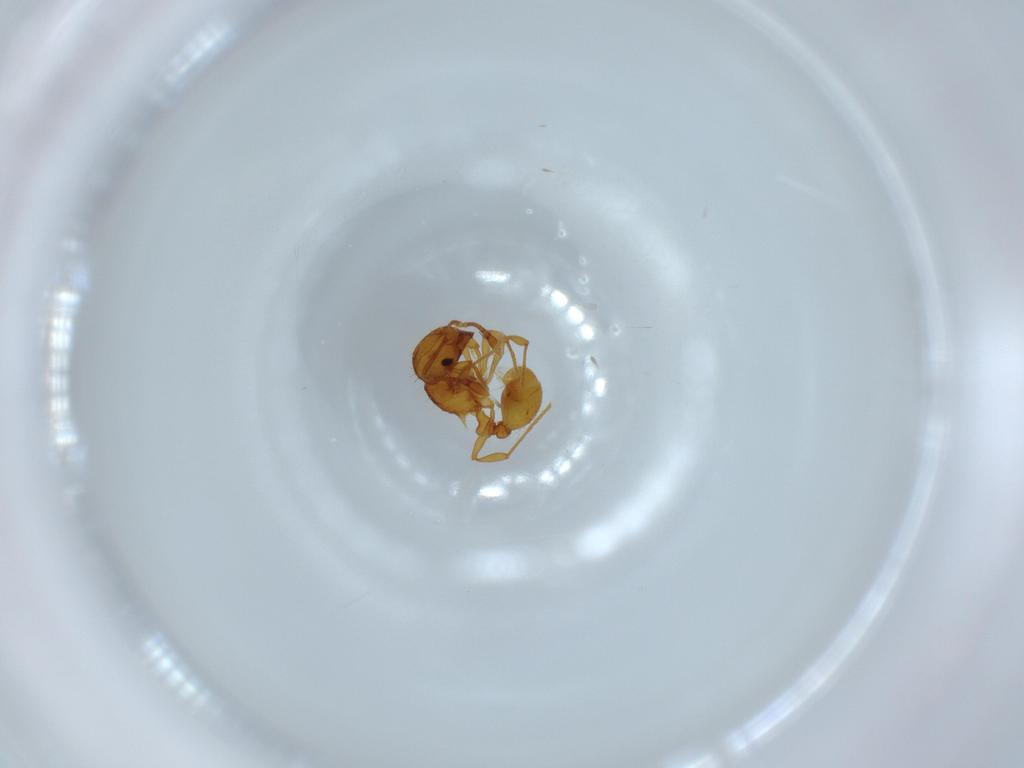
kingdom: Animalia
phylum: Arthropoda
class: Insecta
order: Hymenoptera
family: Formicidae
